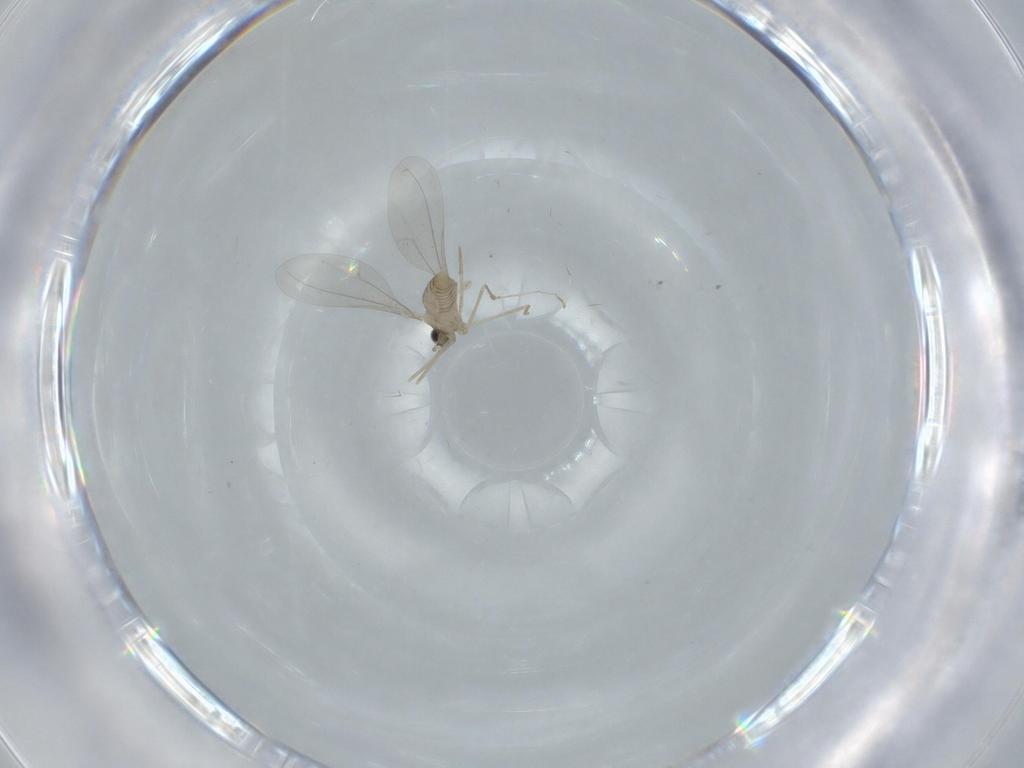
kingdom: Animalia
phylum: Arthropoda
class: Insecta
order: Diptera
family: Cecidomyiidae
